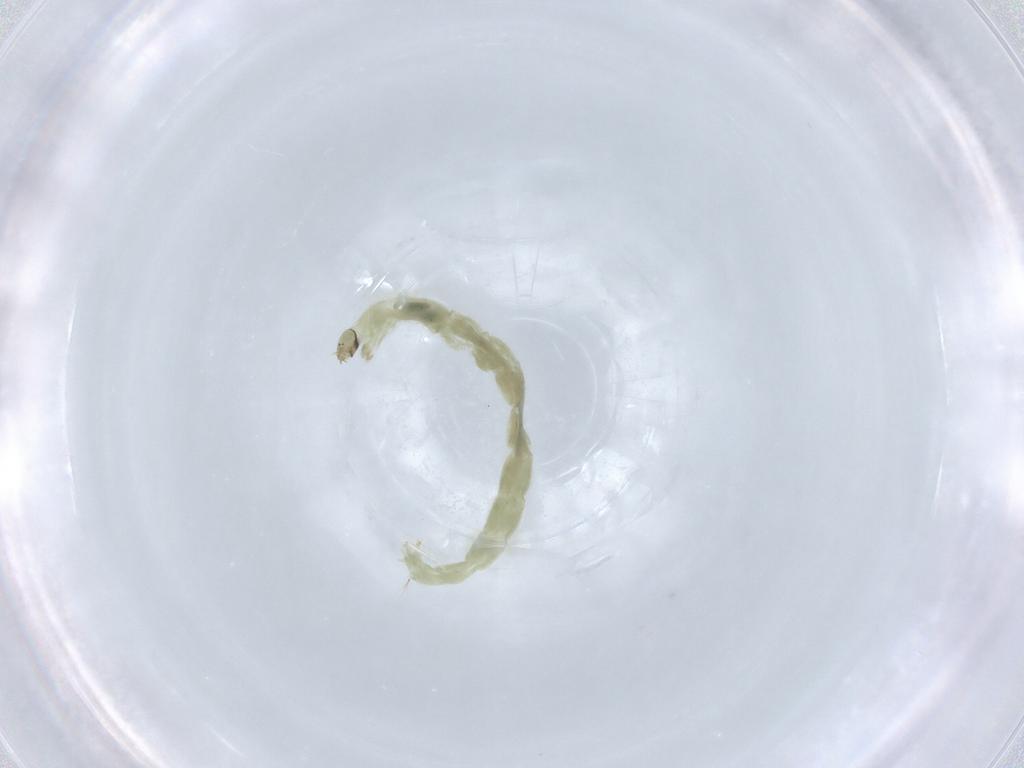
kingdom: Animalia
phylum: Arthropoda
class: Insecta
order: Diptera
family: Chironomidae
